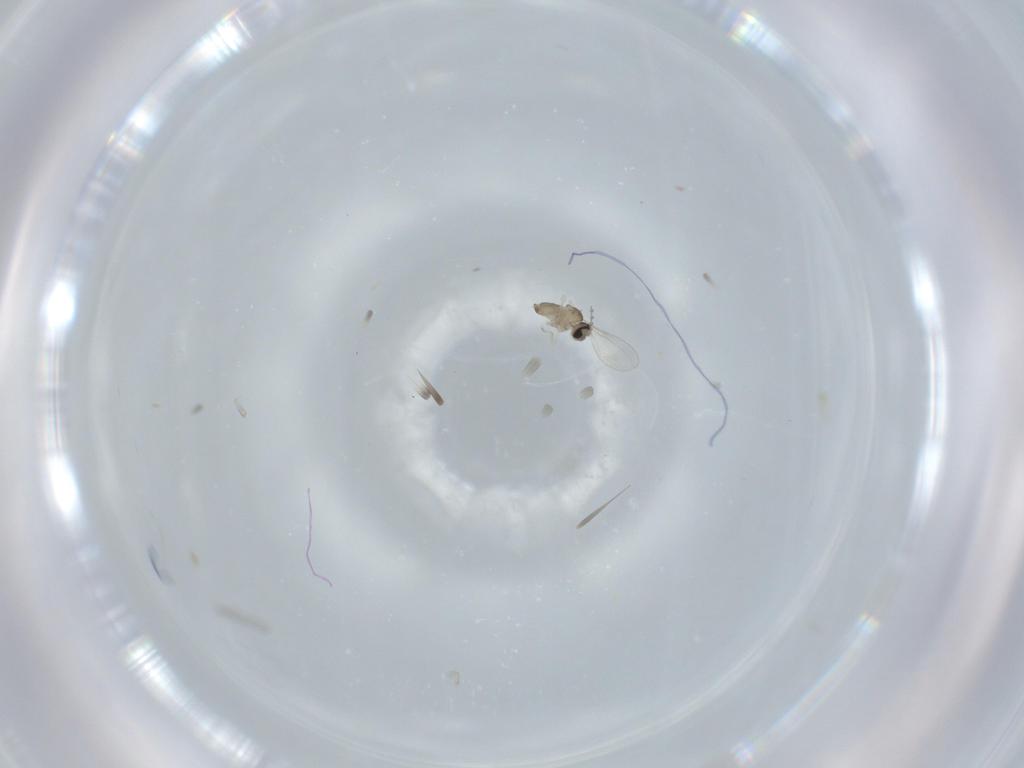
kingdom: Animalia
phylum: Arthropoda
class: Insecta
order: Diptera
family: Cecidomyiidae
